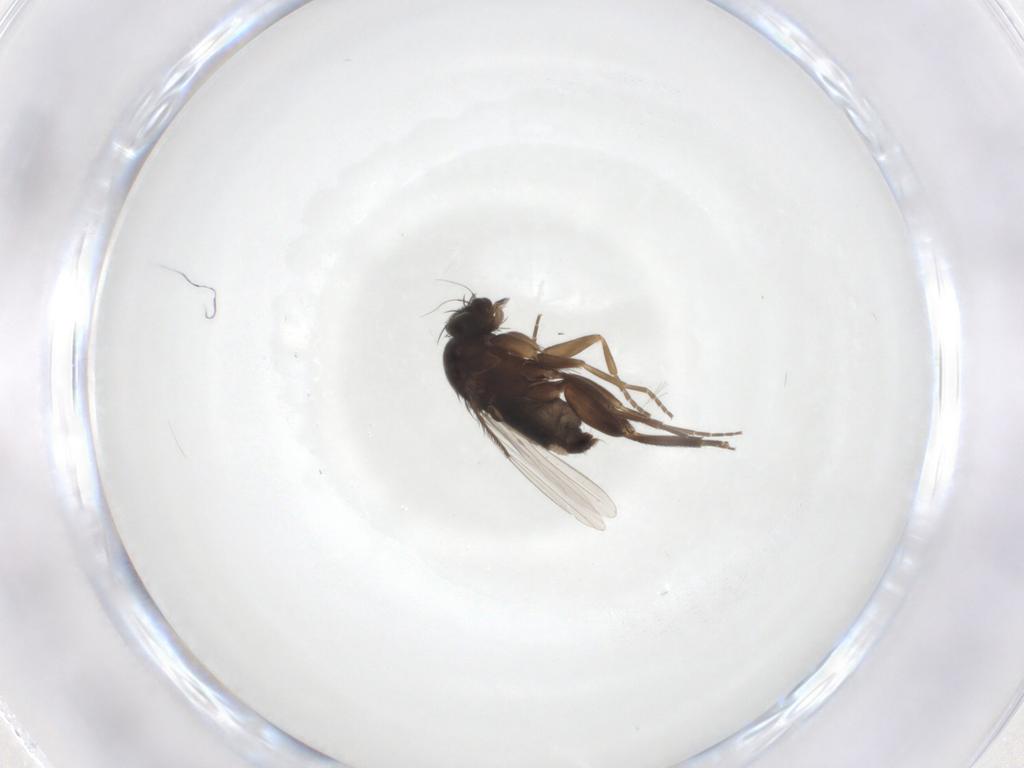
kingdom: Animalia
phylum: Arthropoda
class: Insecta
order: Diptera
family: Phoridae
